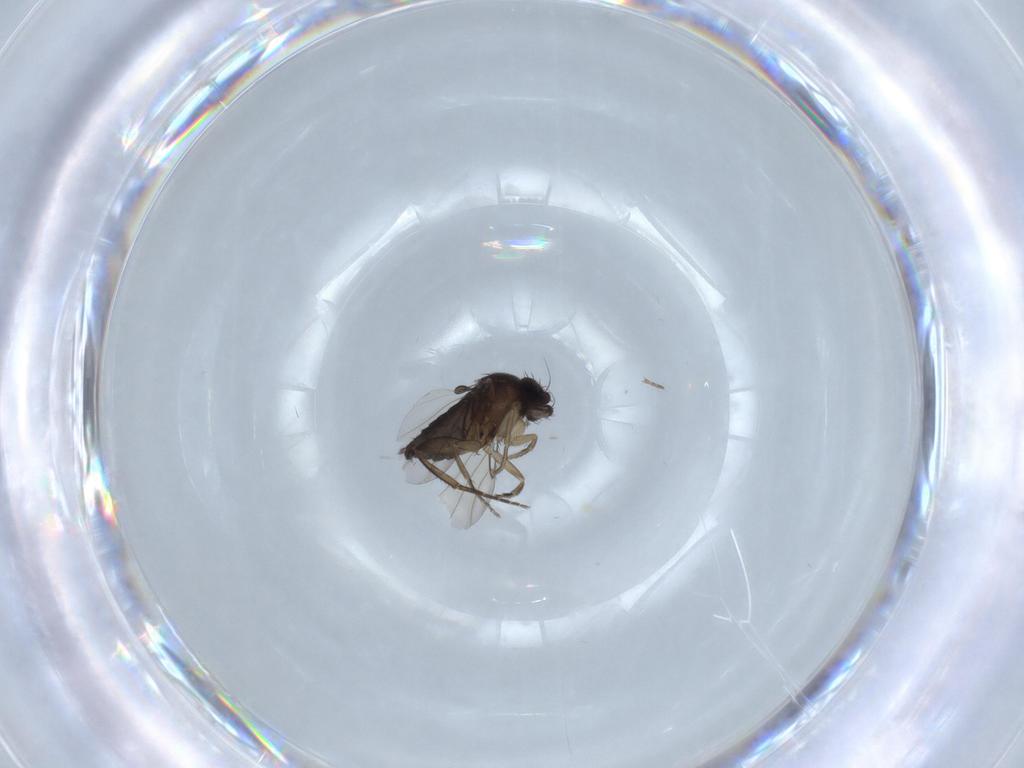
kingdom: Animalia
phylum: Arthropoda
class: Insecta
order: Diptera
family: Phoridae
